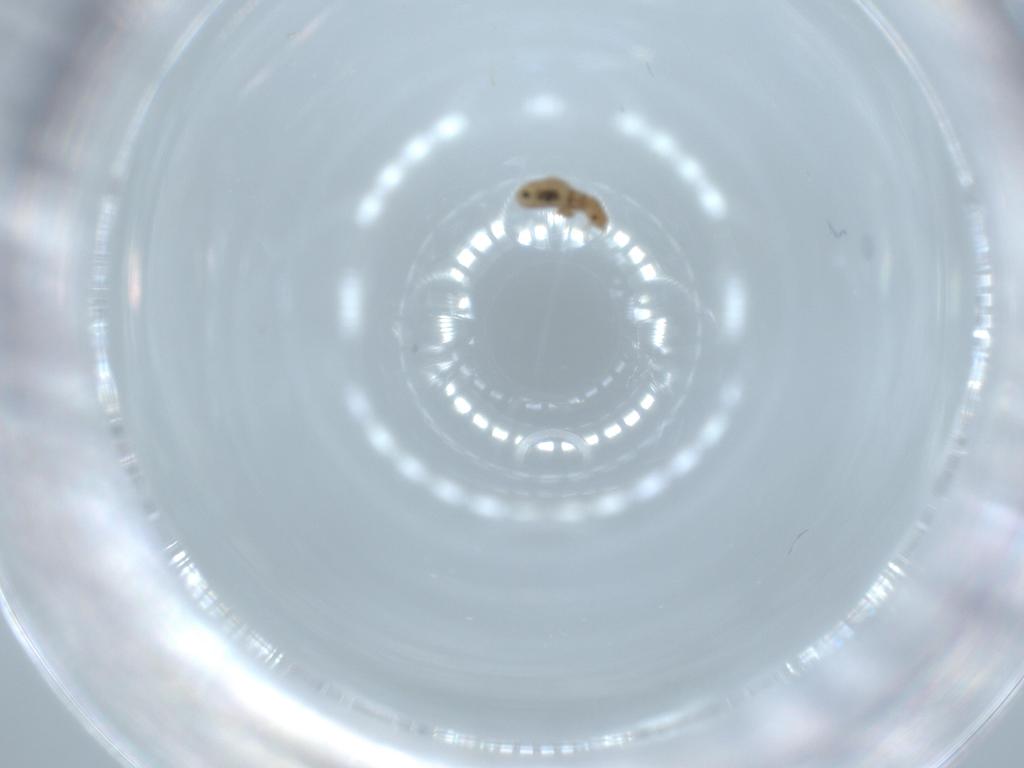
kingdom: Animalia
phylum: Arthropoda
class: Insecta
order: Psocodea
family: Liposcelididae
